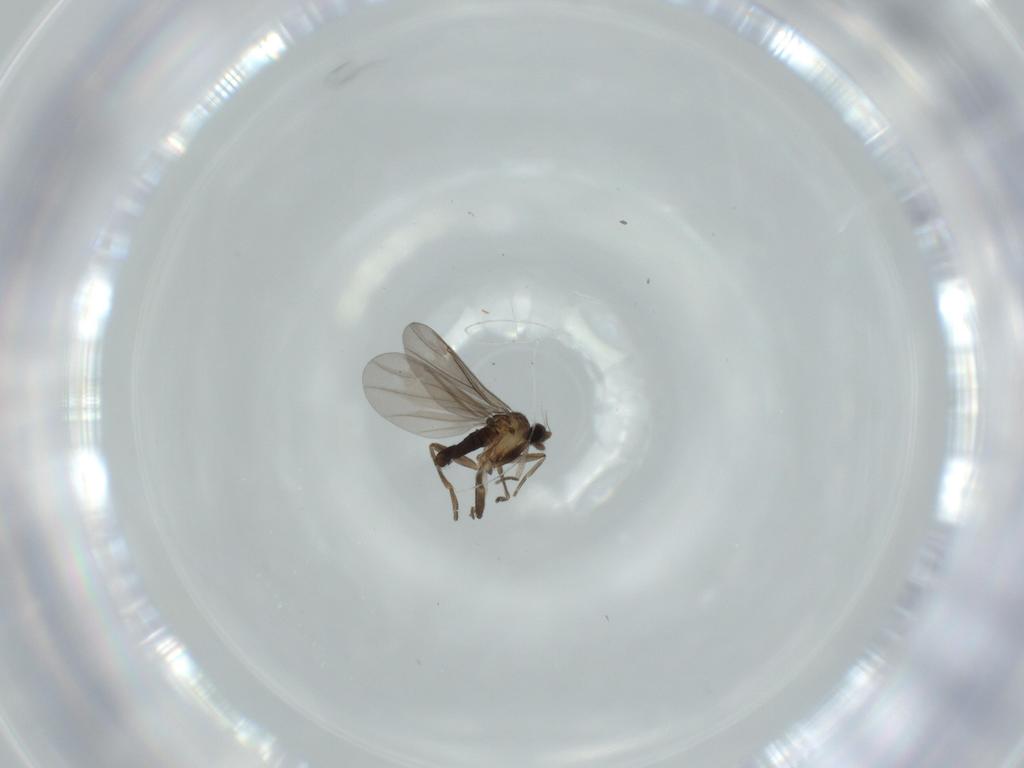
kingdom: Animalia
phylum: Arthropoda
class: Insecta
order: Diptera
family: Phoridae
